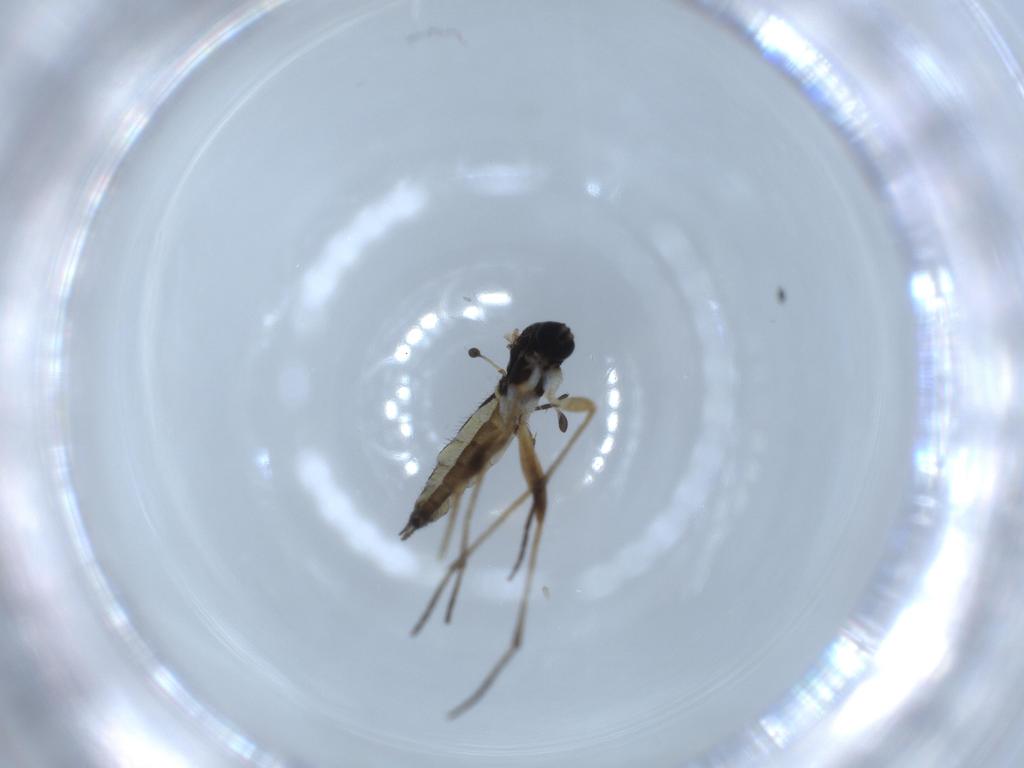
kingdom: Animalia
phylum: Arthropoda
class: Insecta
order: Diptera
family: Sciaridae
